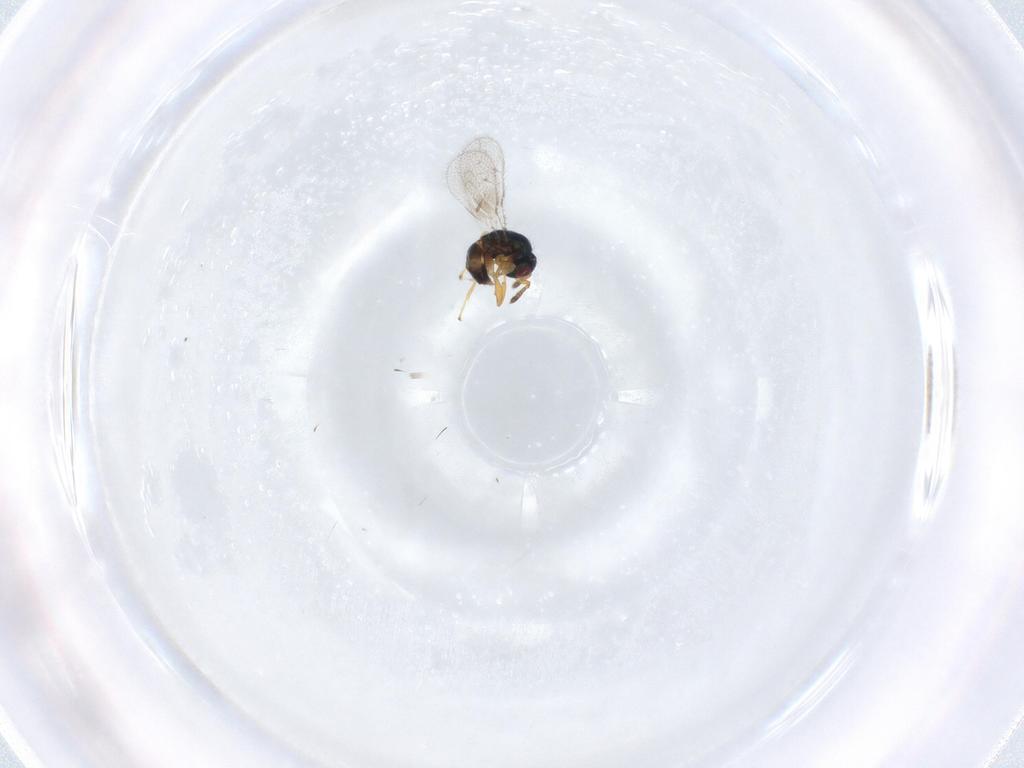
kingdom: Animalia
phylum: Arthropoda
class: Insecta
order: Hymenoptera
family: Torymidae
